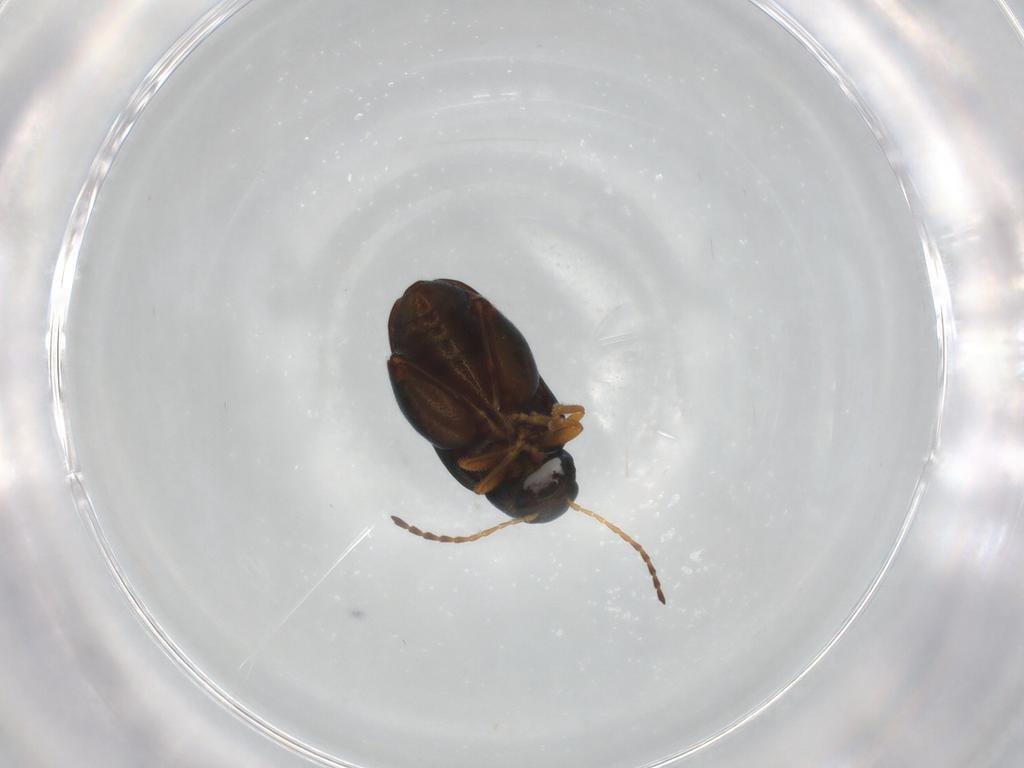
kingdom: Animalia
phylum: Arthropoda
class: Insecta
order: Coleoptera
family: Chrysomelidae
